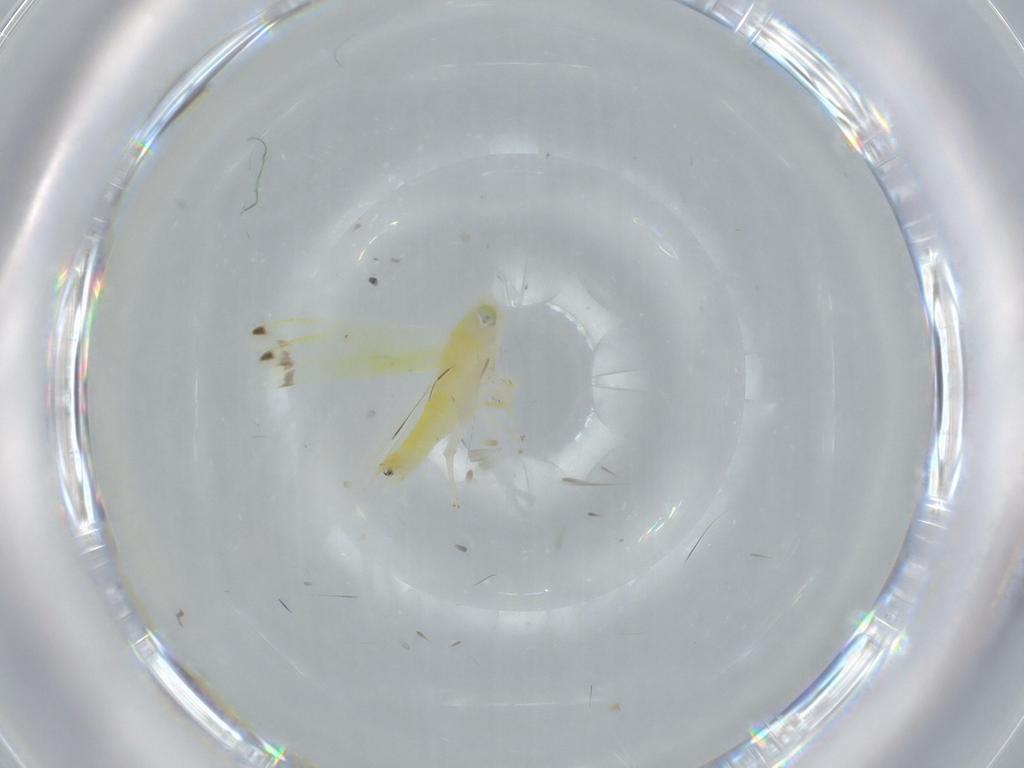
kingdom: Animalia
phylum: Arthropoda
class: Insecta
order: Hemiptera
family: Cicadellidae
